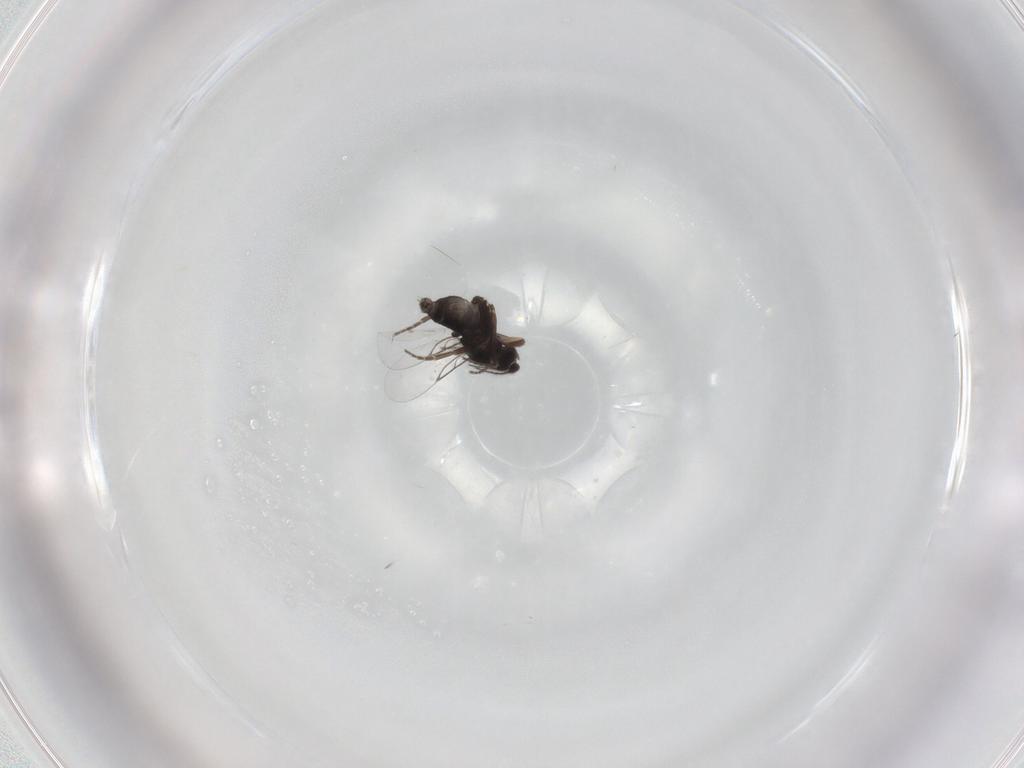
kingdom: Animalia
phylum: Arthropoda
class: Insecta
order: Diptera
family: Phoridae
